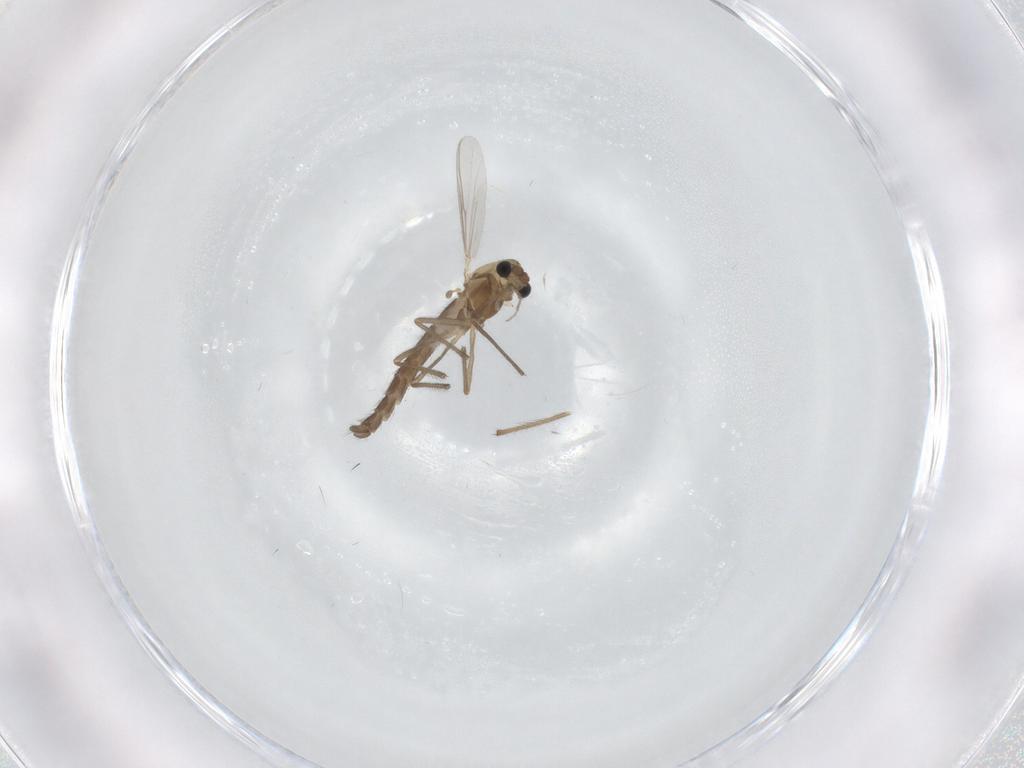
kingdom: Animalia
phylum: Arthropoda
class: Insecta
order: Diptera
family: Chironomidae
